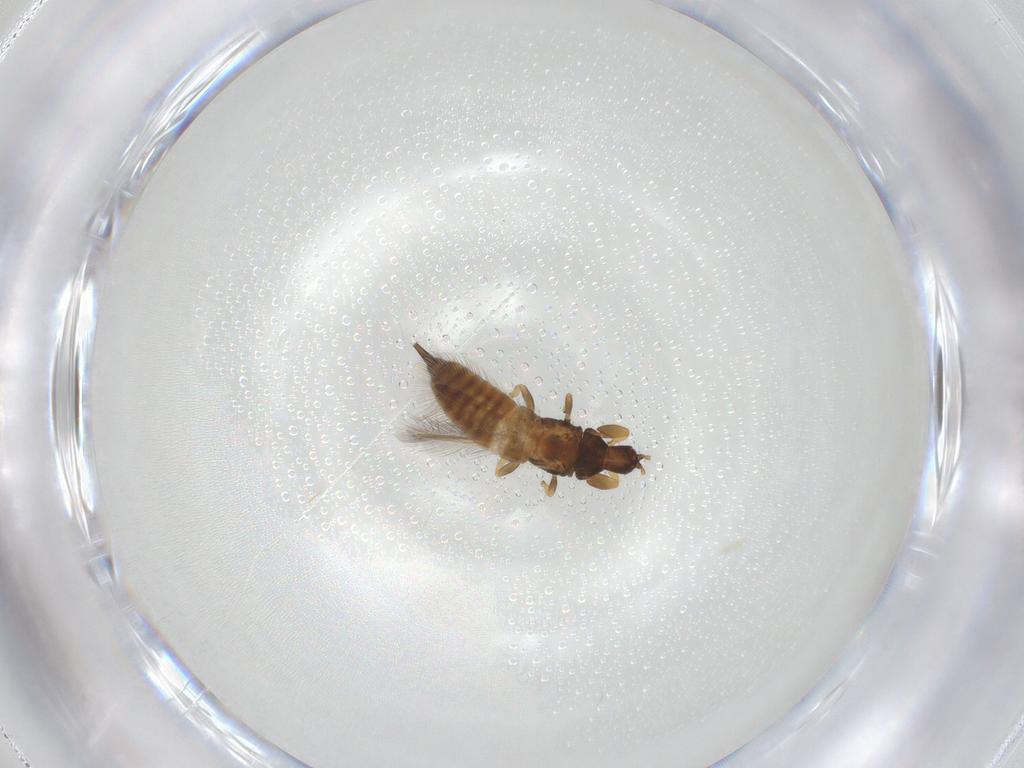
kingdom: Animalia
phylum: Arthropoda
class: Insecta
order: Thysanoptera
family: Phlaeothripidae
